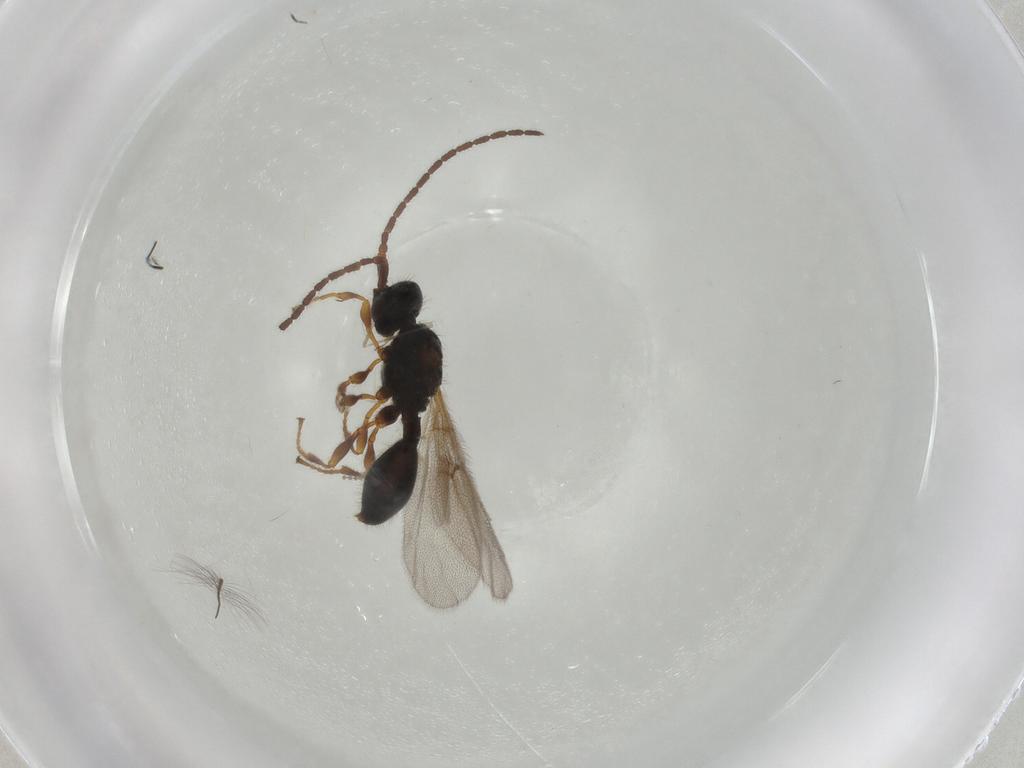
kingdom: Animalia
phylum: Arthropoda
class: Insecta
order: Hymenoptera
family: Diapriidae
